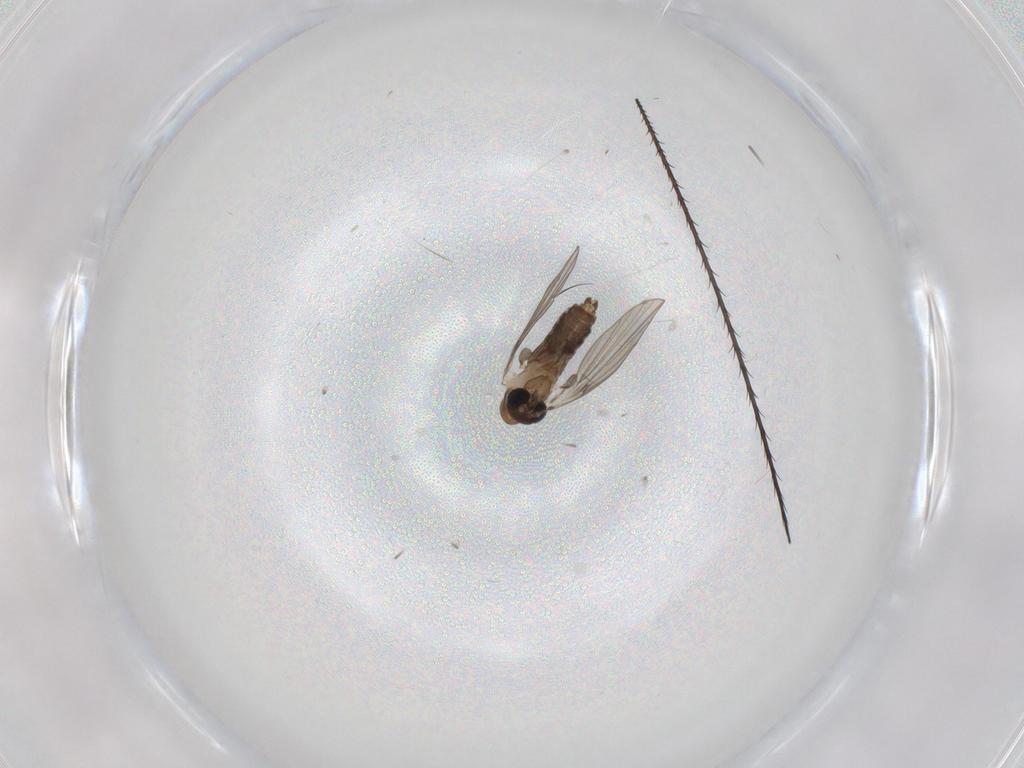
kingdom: Animalia
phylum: Arthropoda
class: Insecta
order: Diptera
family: Psychodidae
